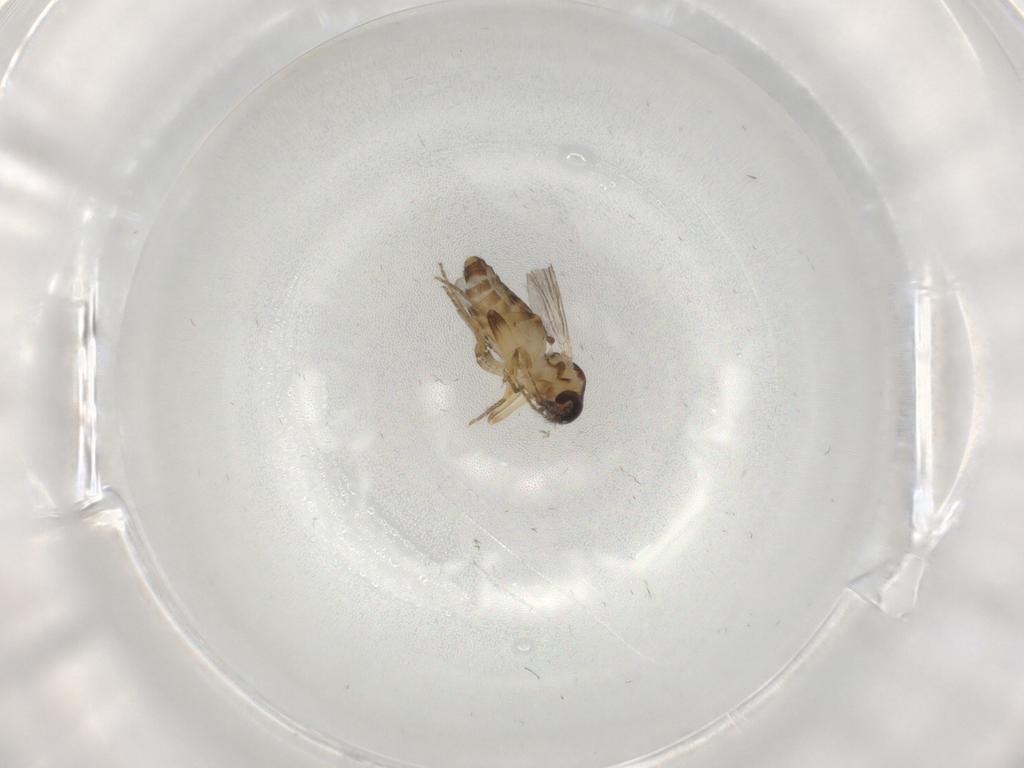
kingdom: Animalia
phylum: Arthropoda
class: Insecta
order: Diptera
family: Ceratopogonidae
